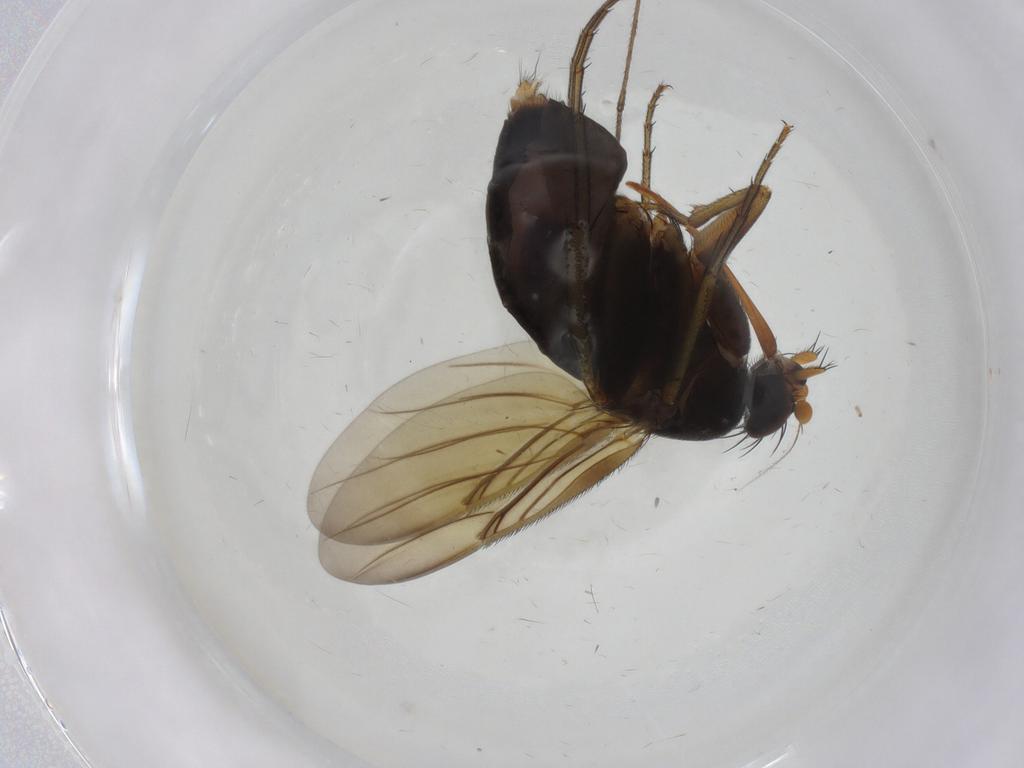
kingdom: Animalia
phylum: Arthropoda
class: Insecta
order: Diptera
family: Phoridae
